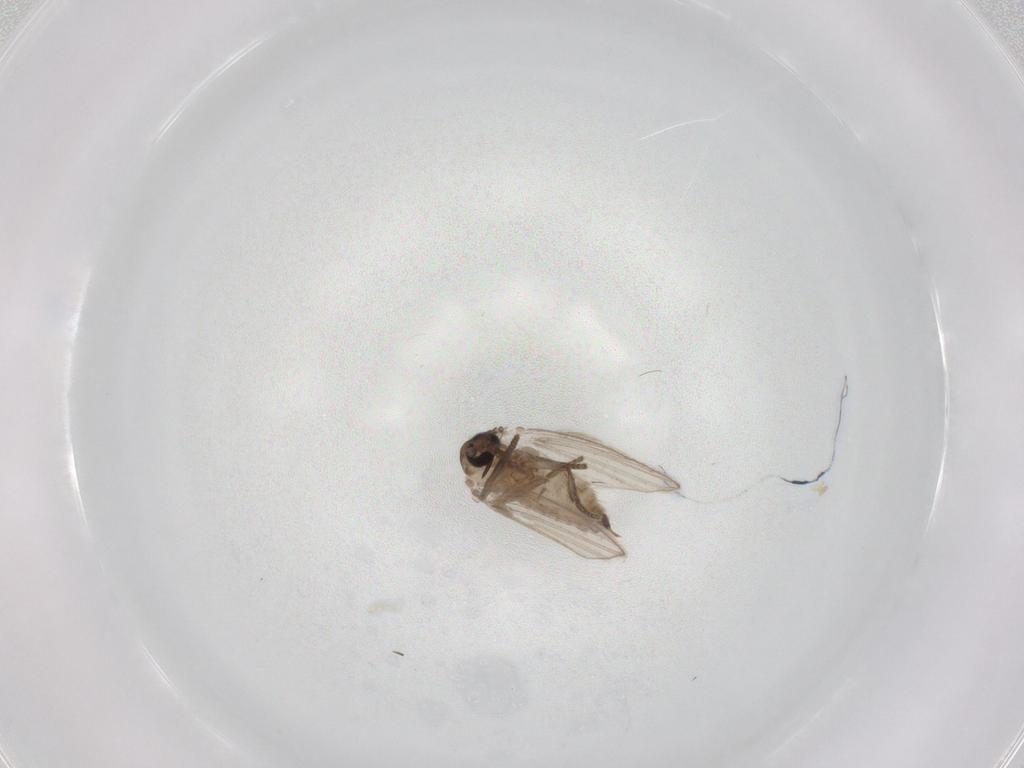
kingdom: Animalia
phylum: Arthropoda
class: Insecta
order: Diptera
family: Psychodidae
